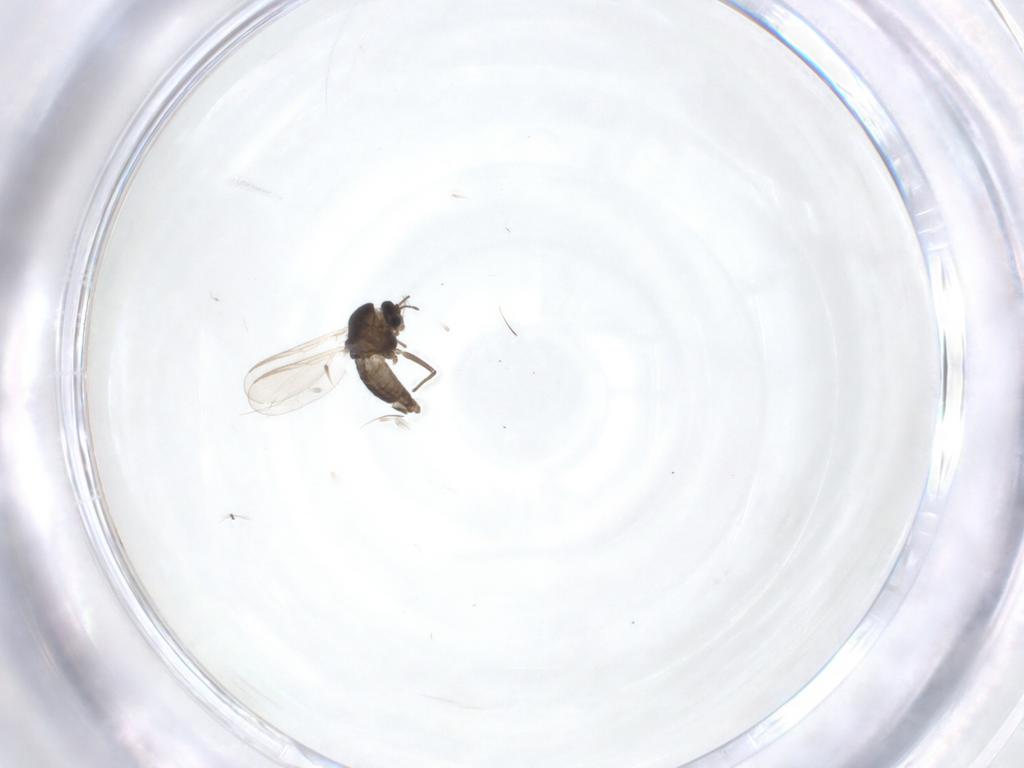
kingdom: Animalia
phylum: Arthropoda
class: Insecta
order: Diptera
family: Chironomidae
